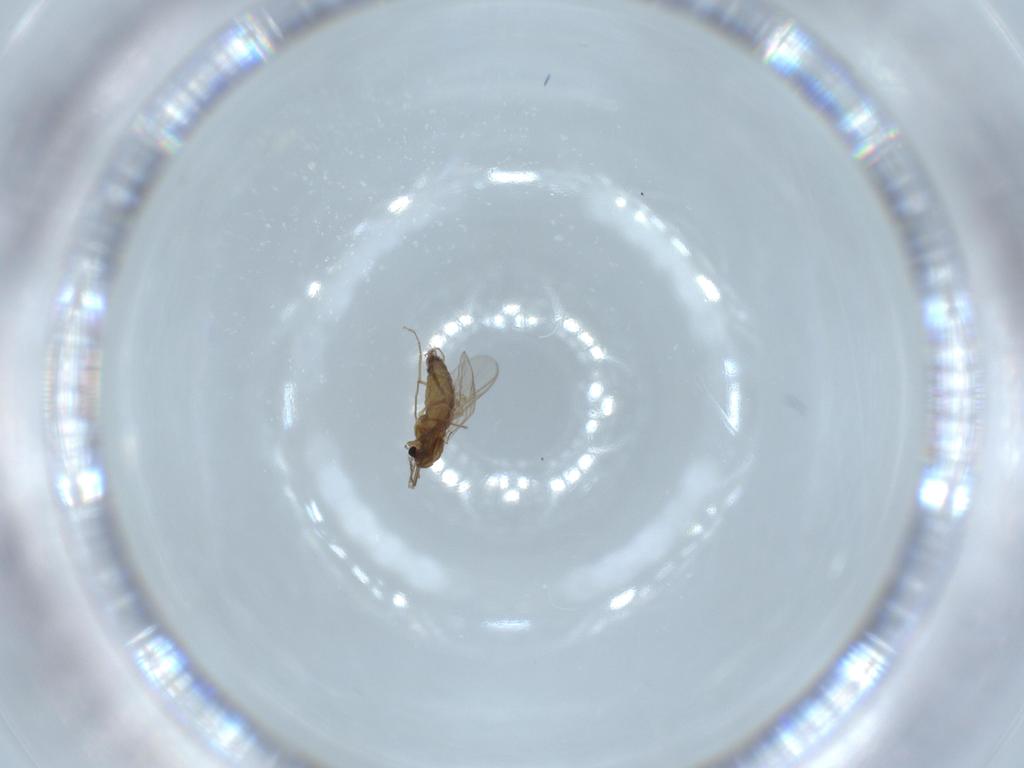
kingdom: Animalia
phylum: Arthropoda
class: Insecta
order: Diptera
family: Chironomidae
